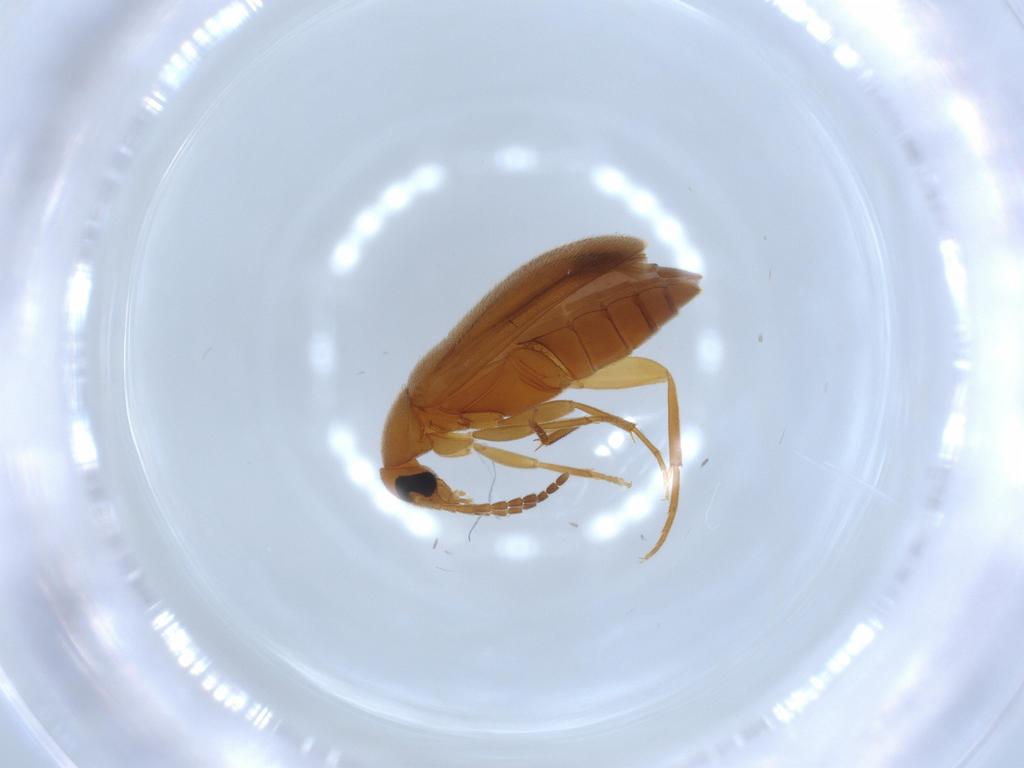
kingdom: Animalia
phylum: Arthropoda
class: Insecta
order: Coleoptera
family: Scraptiidae
